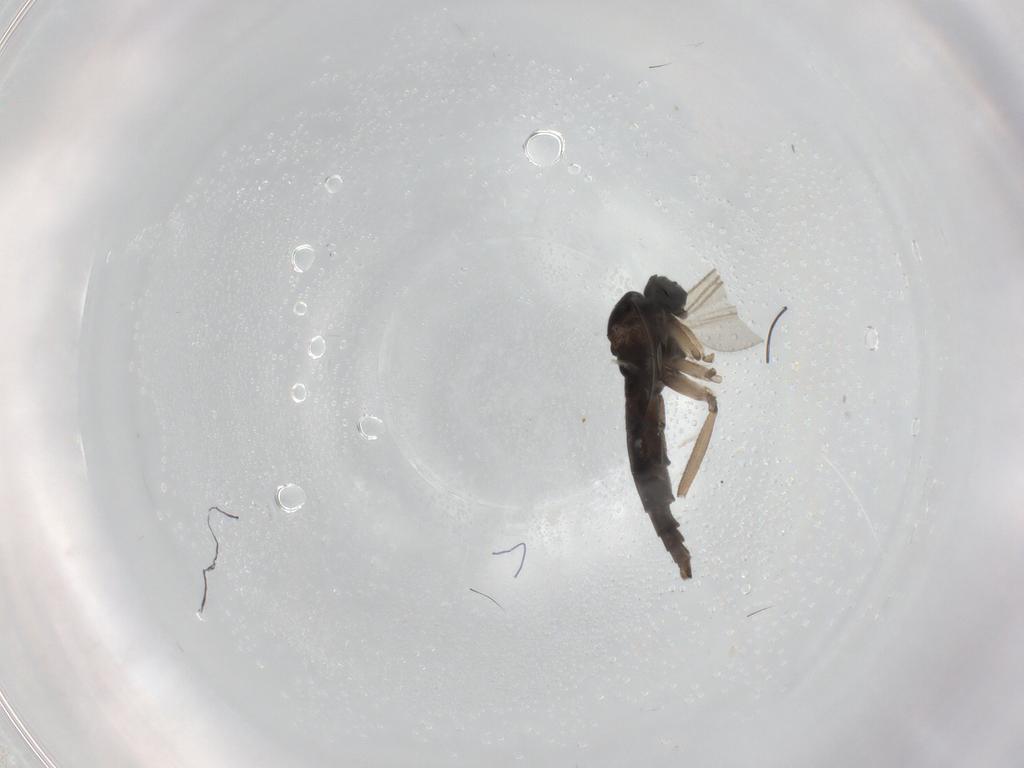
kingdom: Animalia
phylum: Arthropoda
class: Insecta
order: Diptera
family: Sciaridae
